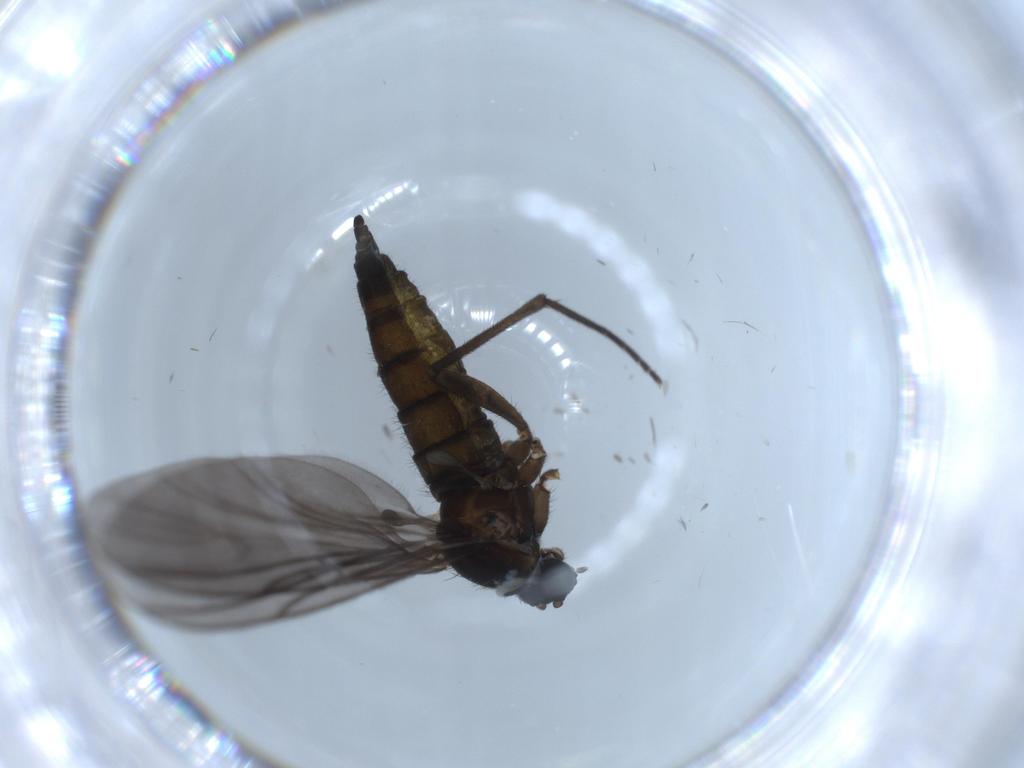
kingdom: Animalia
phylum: Arthropoda
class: Insecta
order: Diptera
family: Sciaridae
